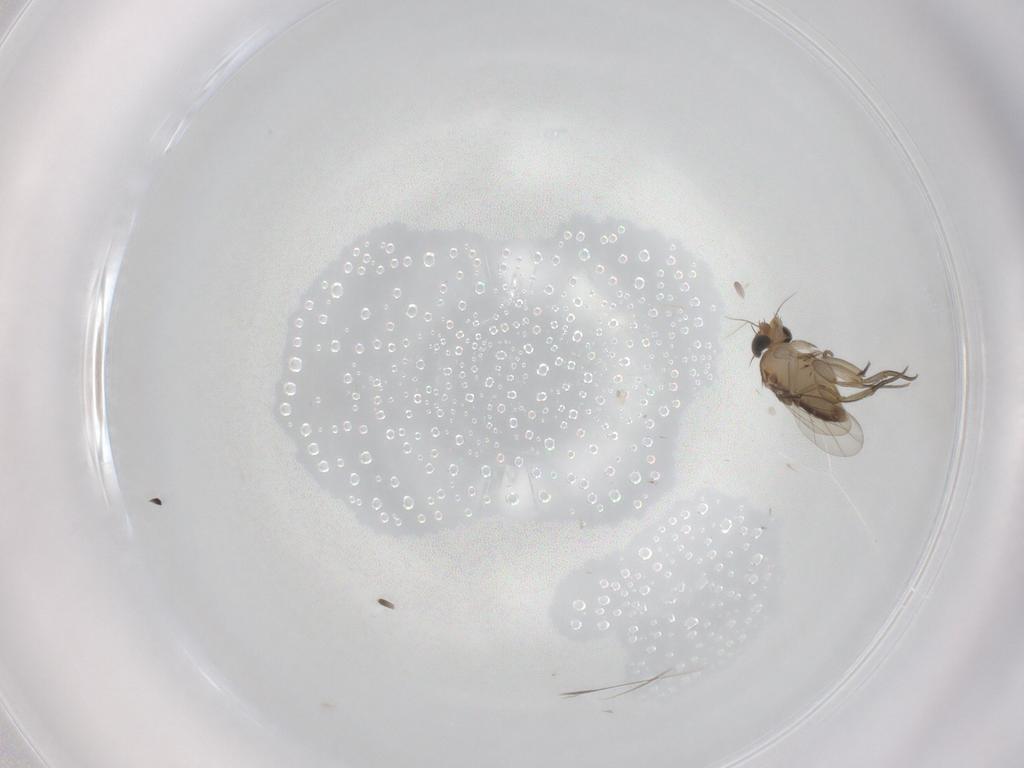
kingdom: Animalia
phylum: Arthropoda
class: Insecta
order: Diptera
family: Phoridae
